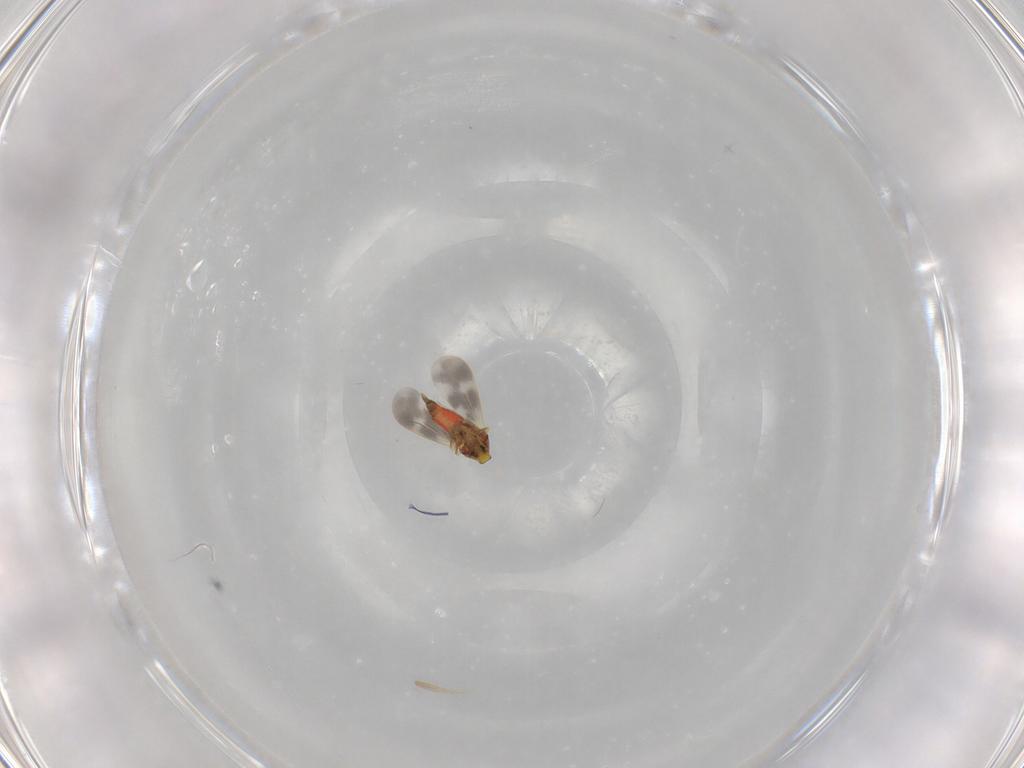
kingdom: Animalia
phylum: Arthropoda
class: Insecta
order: Hemiptera
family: Aleyrodidae
